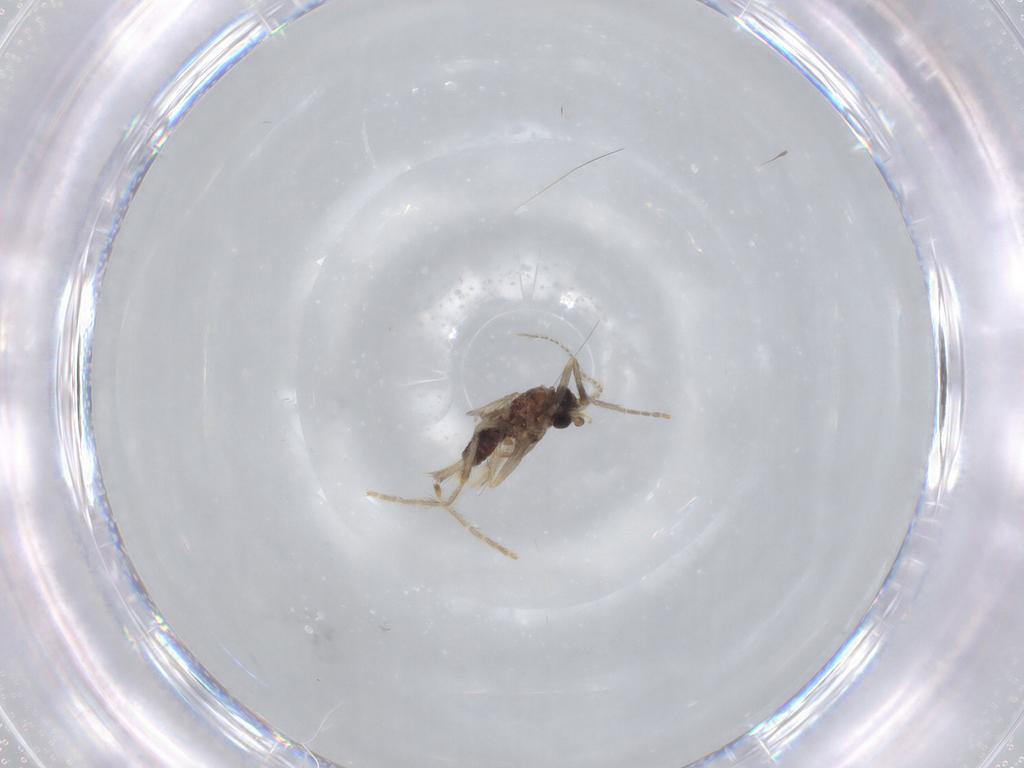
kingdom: Animalia
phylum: Arthropoda
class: Insecta
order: Diptera
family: Corethrellidae
